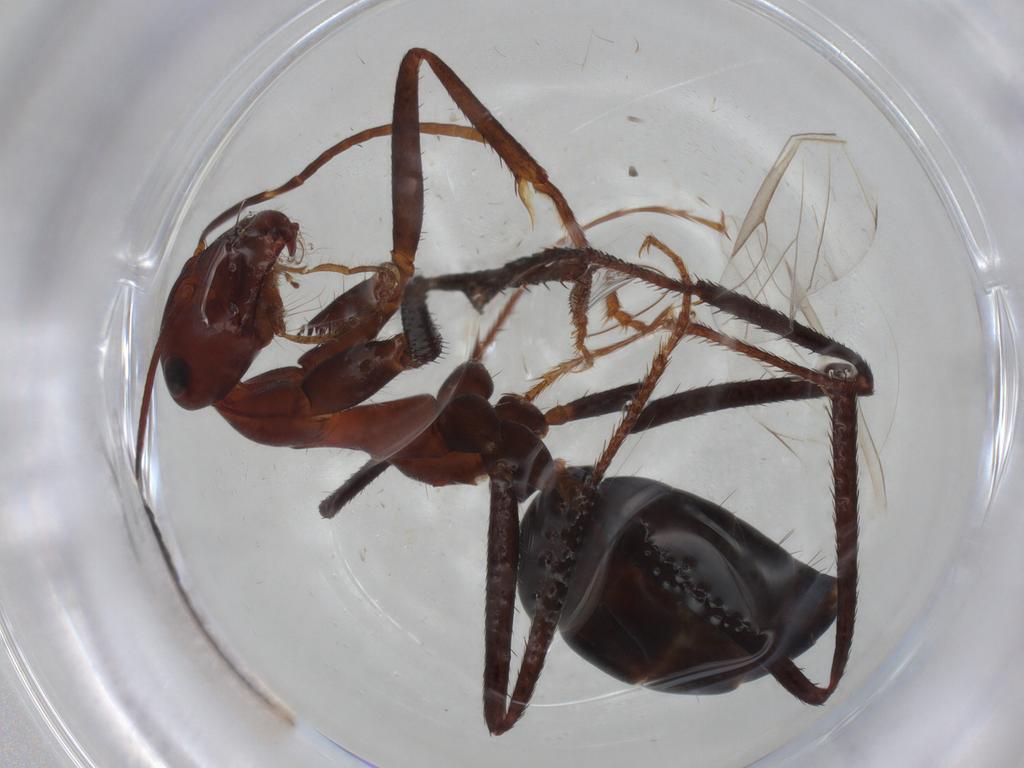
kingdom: Animalia
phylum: Arthropoda
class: Insecta
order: Hymenoptera
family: Formicidae
